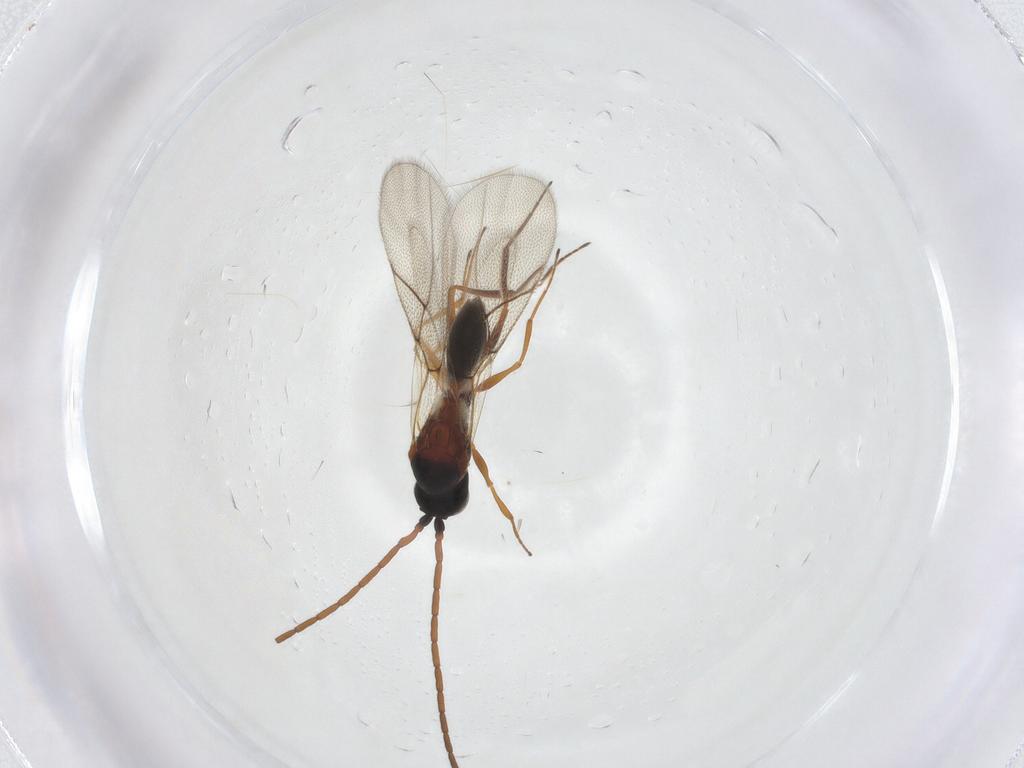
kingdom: Animalia
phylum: Arthropoda
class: Insecta
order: Hymenoptera
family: Figitidae
